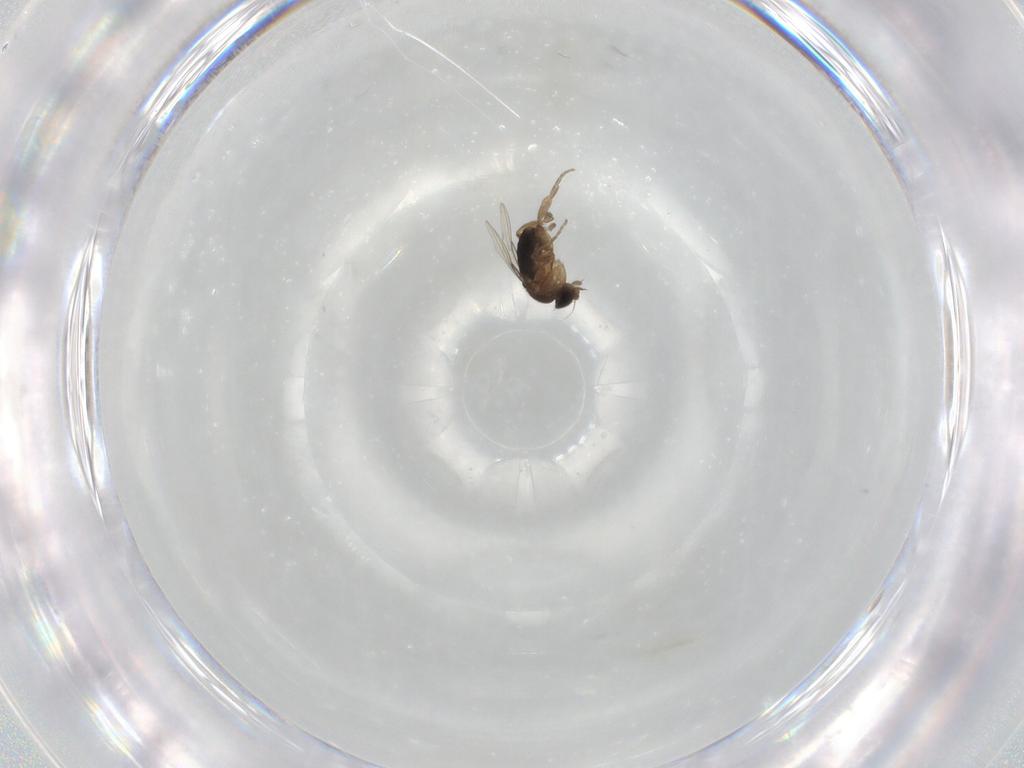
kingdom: Animalia
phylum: Arthropoda
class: Insecta
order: Diptera
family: Phoridae
